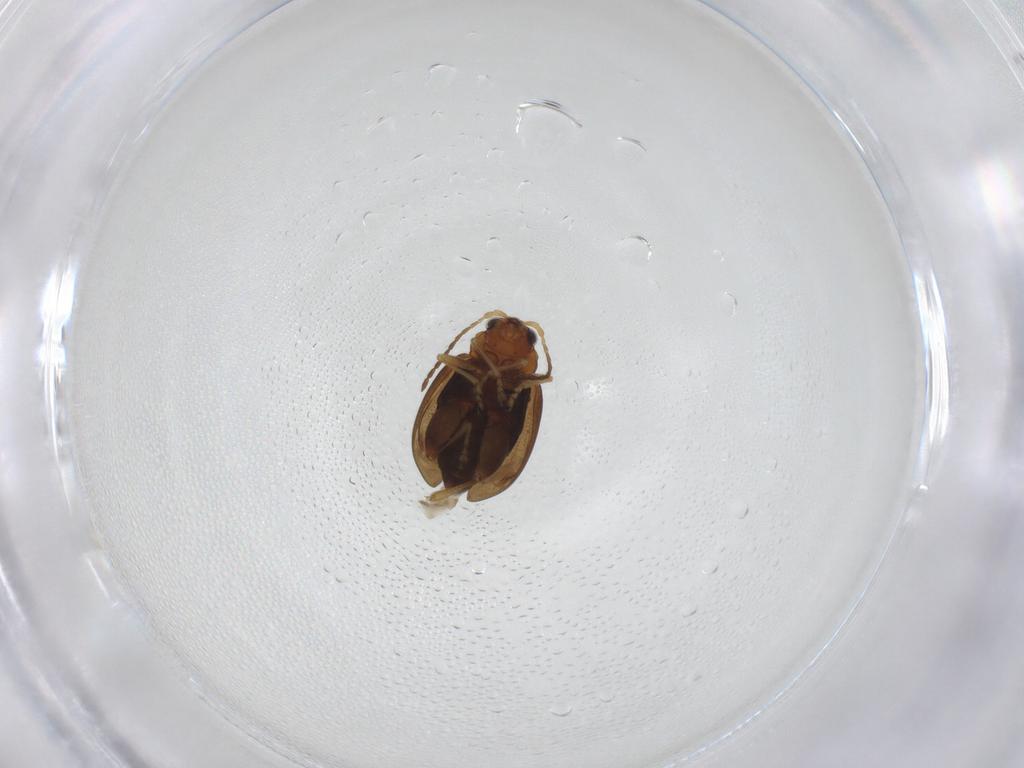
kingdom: Animalia
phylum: Arthropoda
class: Insecta
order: Coleoptera
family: Chrysomelidae
